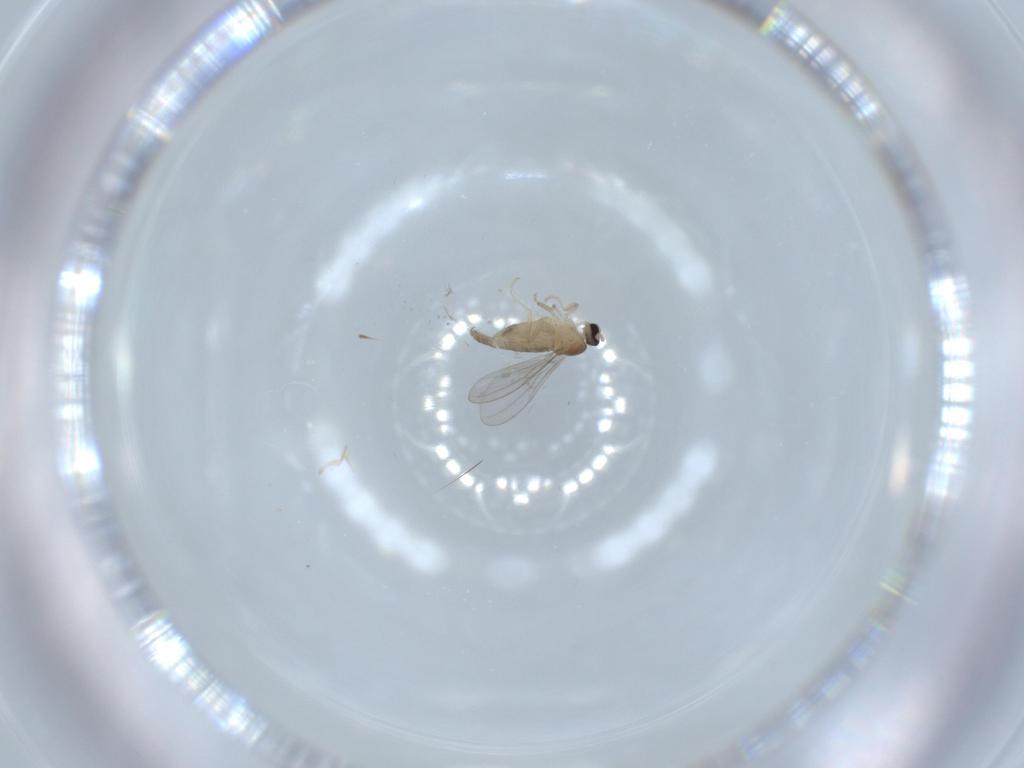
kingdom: Animalia
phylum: Arthropoda
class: Insecta
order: Diptera
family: Cecidomyiidae
